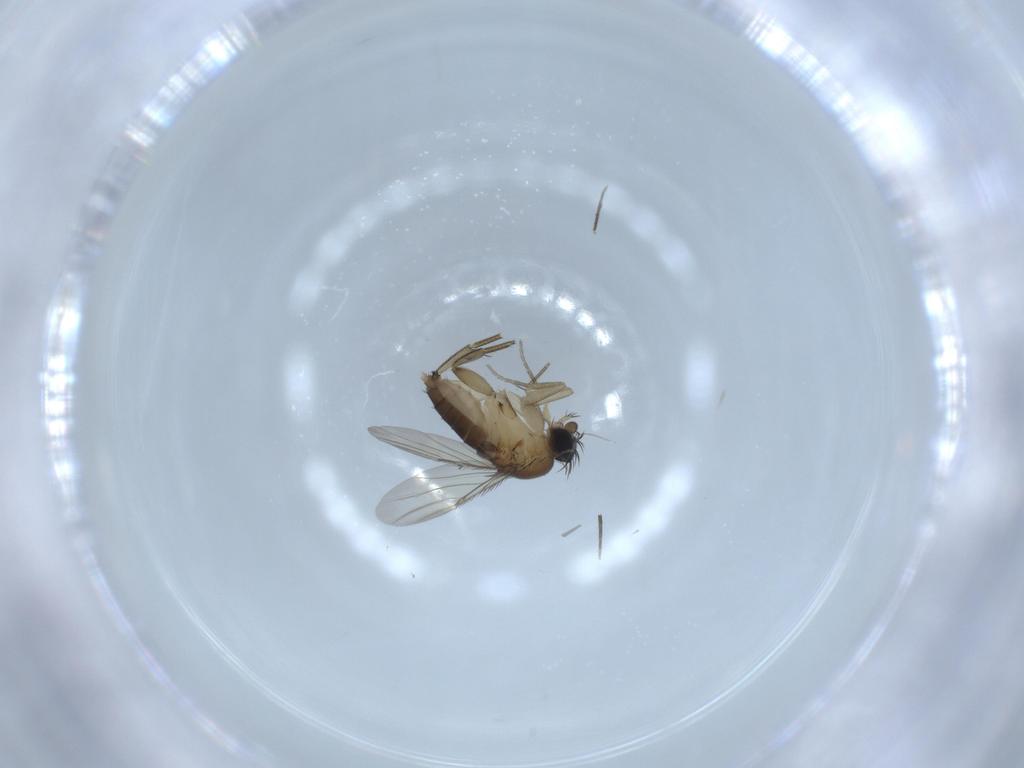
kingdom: Animalia
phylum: Arthropoda
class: Insecta
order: Diptera
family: Phoridae
